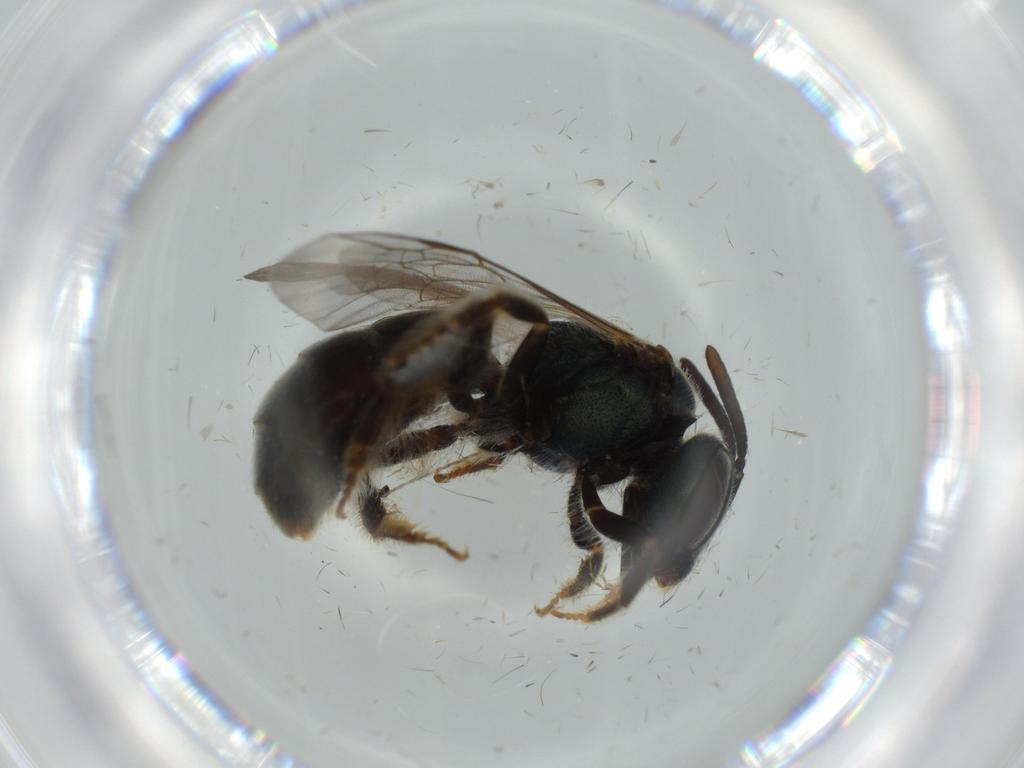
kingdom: Animalia
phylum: Arthropoda
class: Insecta
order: Hymenoptera
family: Halictidae
